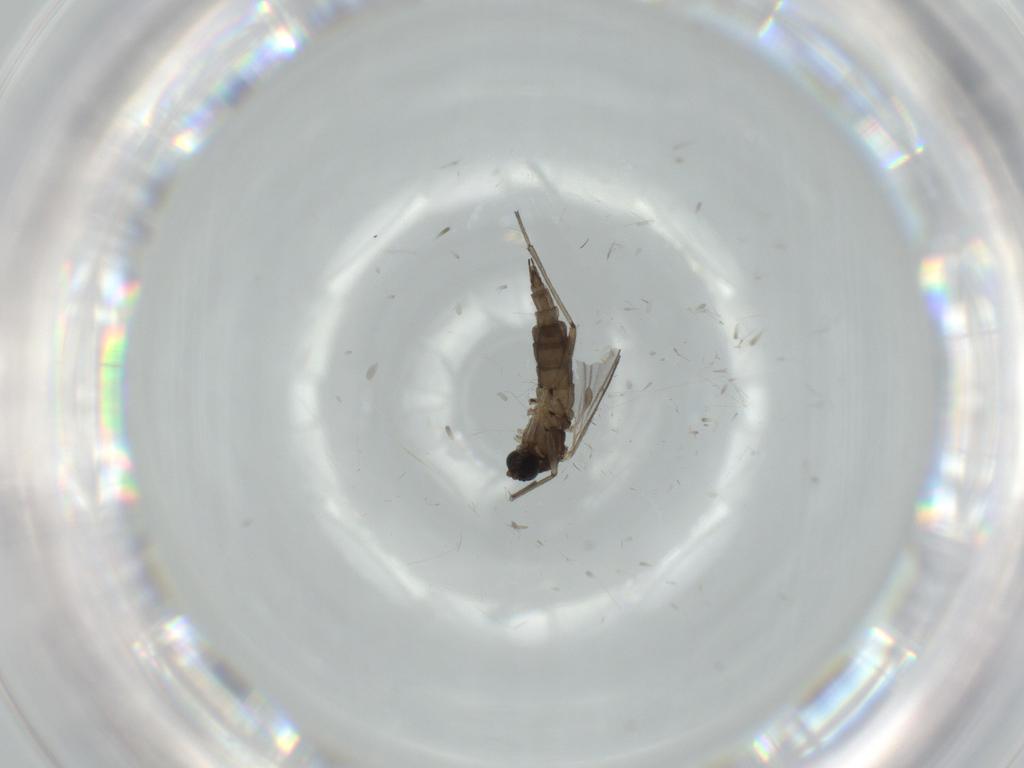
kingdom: Animalia
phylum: Arthropoda
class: Insecta
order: Diptera
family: Sciaridae
